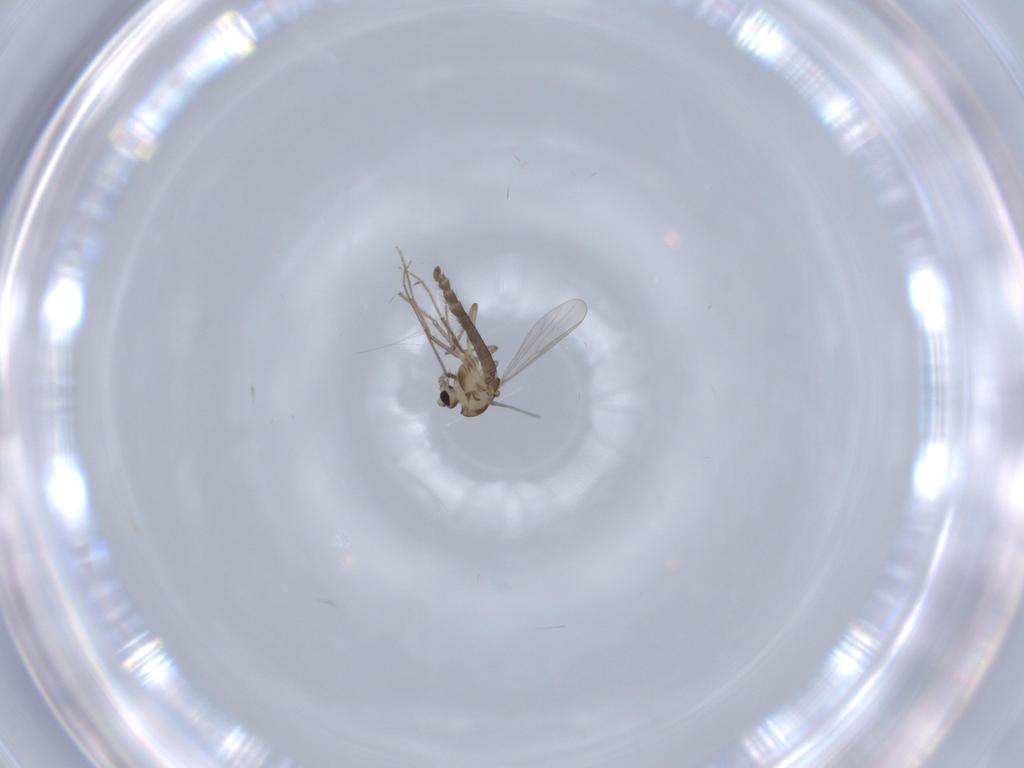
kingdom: Animalia
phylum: Arthropoda
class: Insecta
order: Diptera
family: Chironomidae
